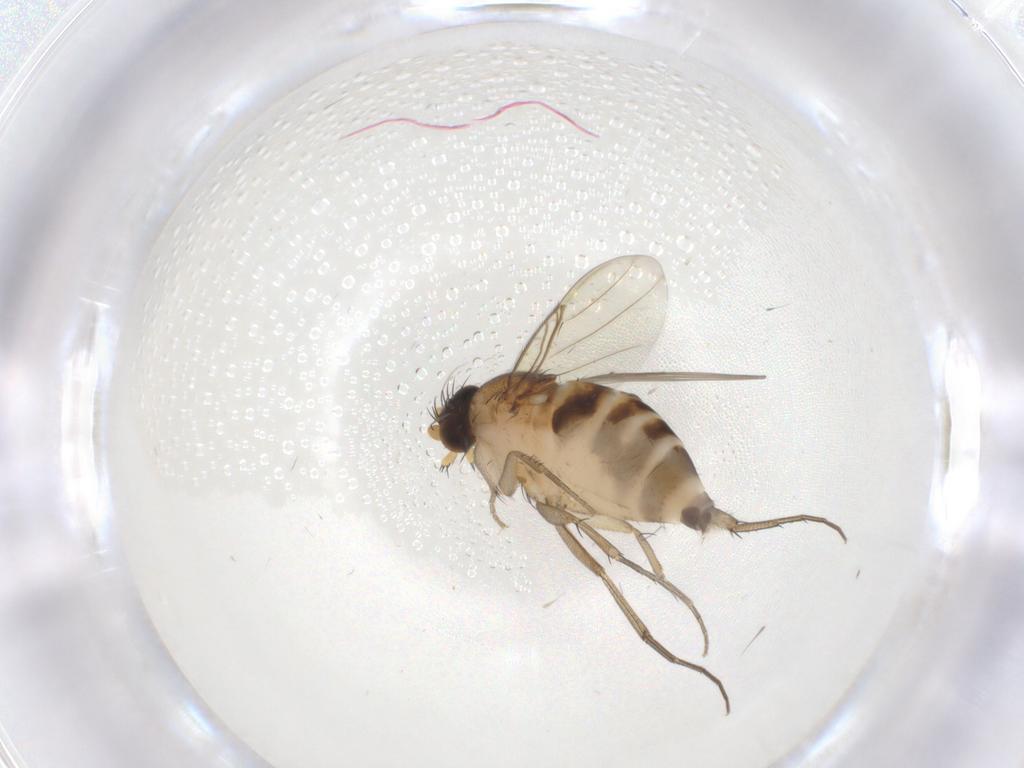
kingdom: Animalia
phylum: Arthropoda
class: Insecta
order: Diptera
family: Phoridae
